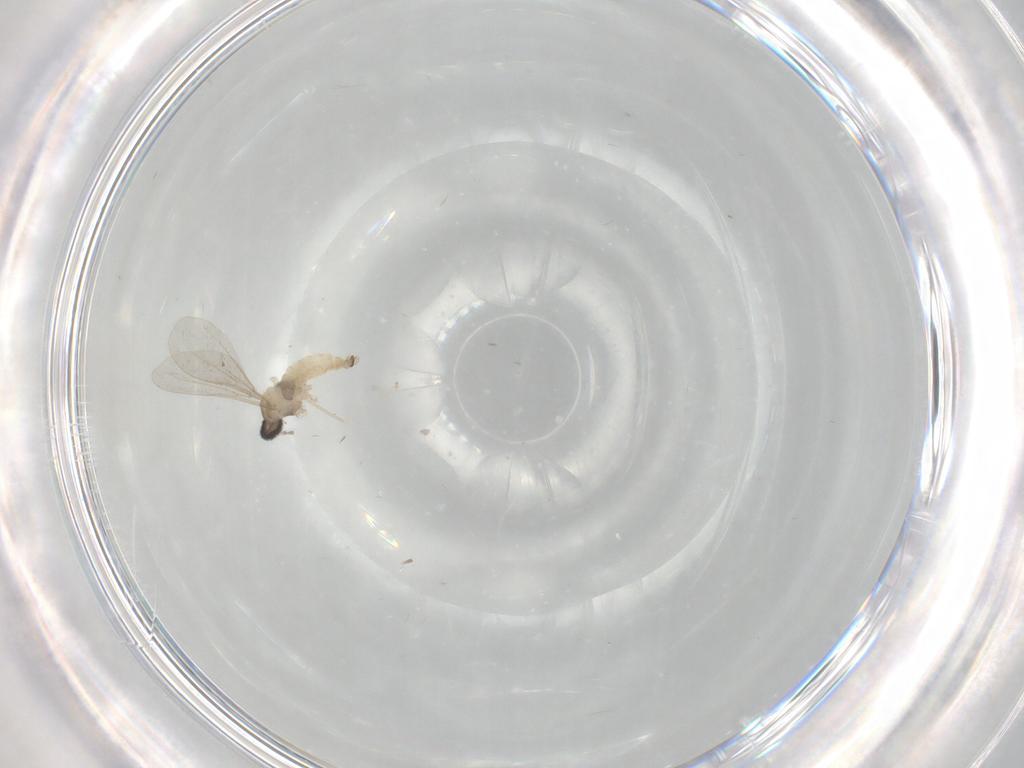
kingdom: Animalia
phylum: Arthropoda
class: Insecta
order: Diptera
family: Cecidomyiidae
